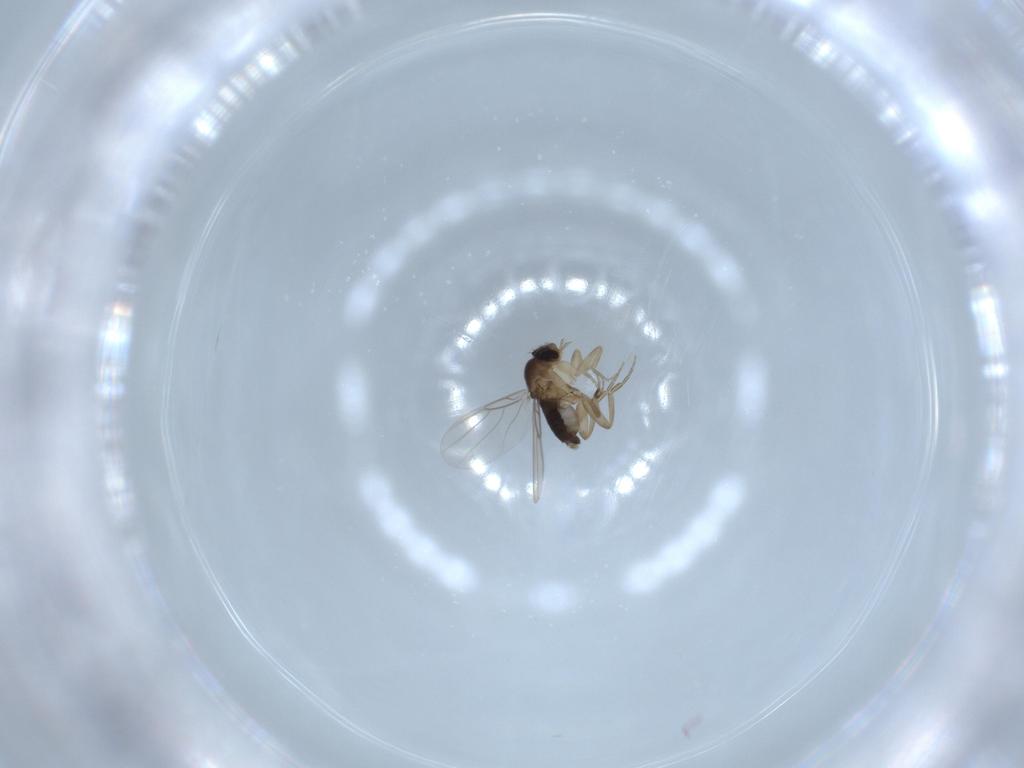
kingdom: Animalia
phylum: Arthropoda
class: Insecta
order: Diptera
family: Phoridae
